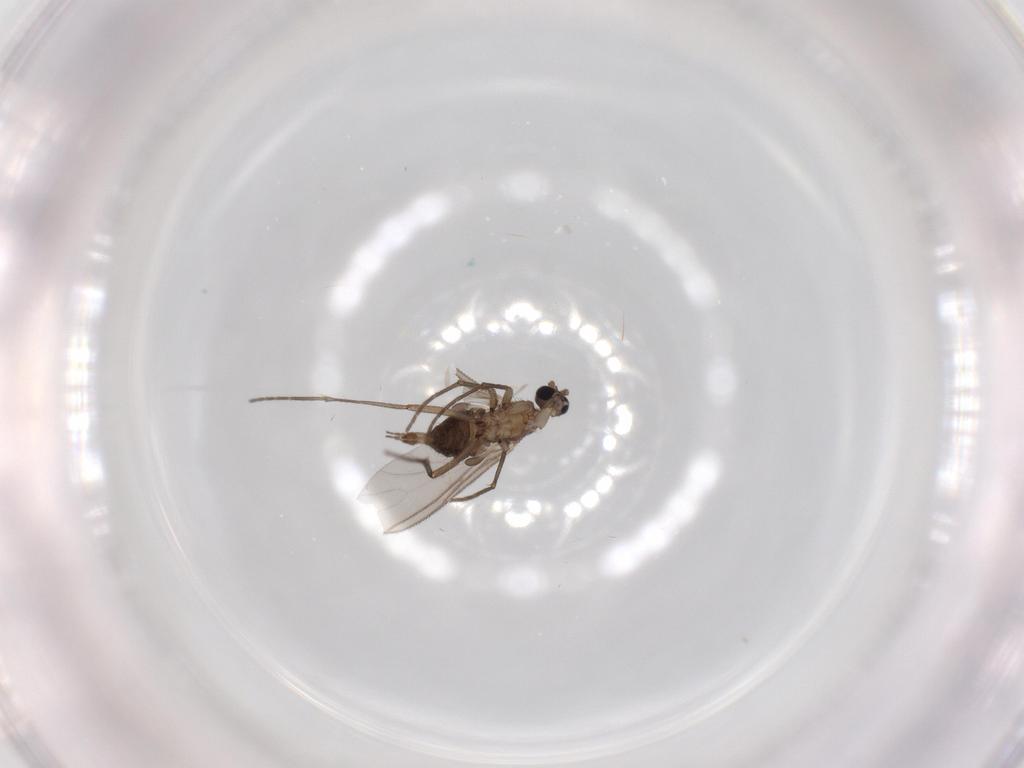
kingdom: Animalia
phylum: Arthropoda
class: Insecta
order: Diptera
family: Sciaridae
